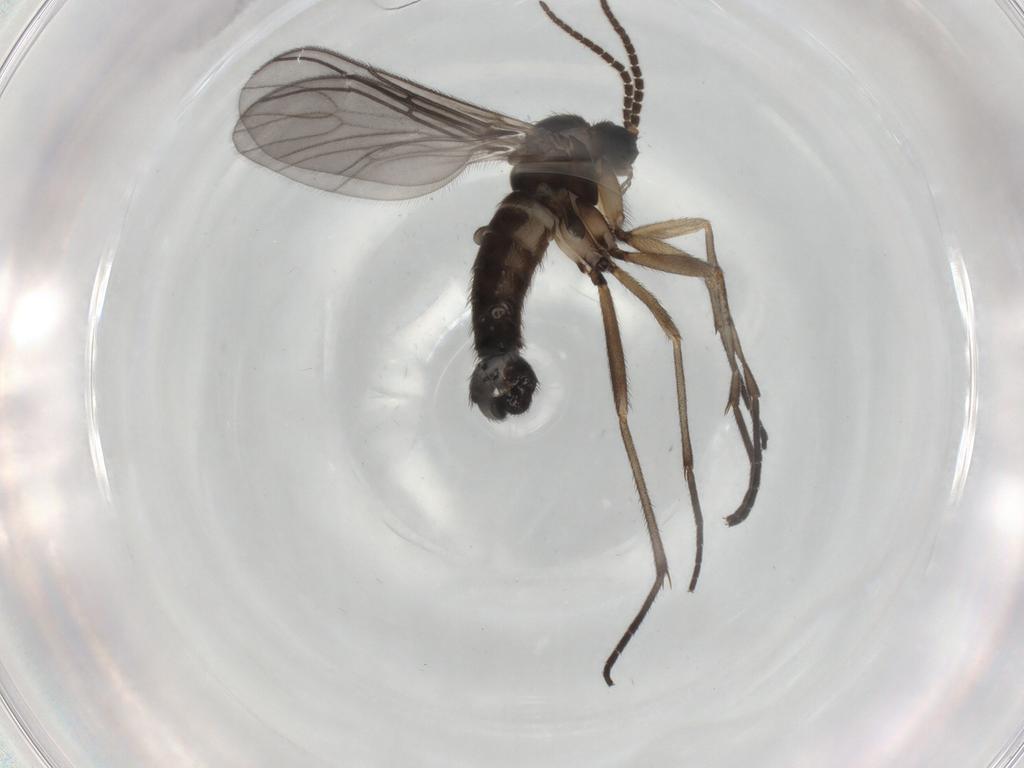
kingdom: Animalia
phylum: Arthropoda
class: Insecta
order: Diptera
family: Sciaridae
